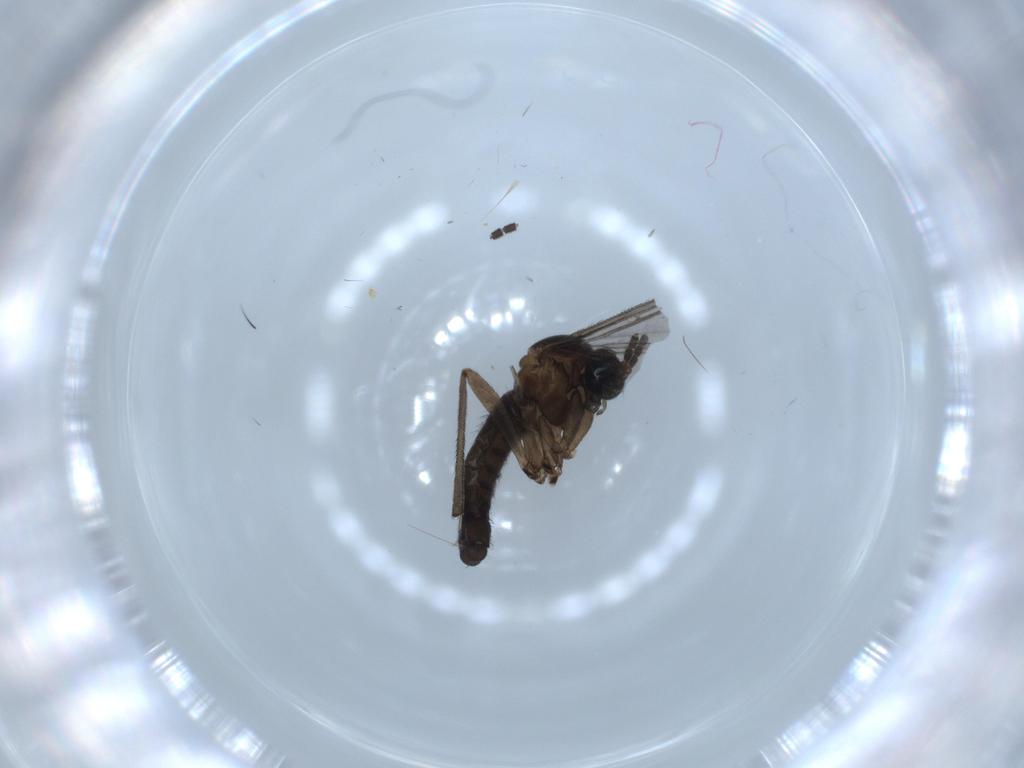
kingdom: Animalia
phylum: Arthropoda
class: Insecta
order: Diptera
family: Sciaridae
